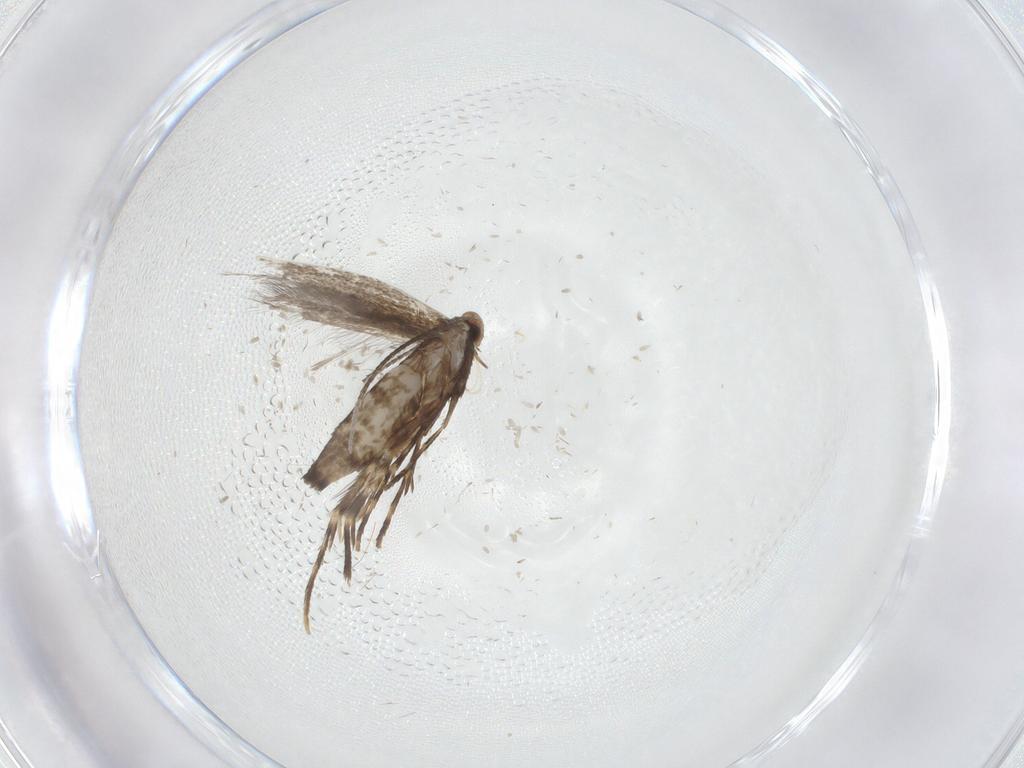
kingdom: Animalia
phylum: Arthropoda
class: Insecta
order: Lepidoptera
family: Gracillariidae
